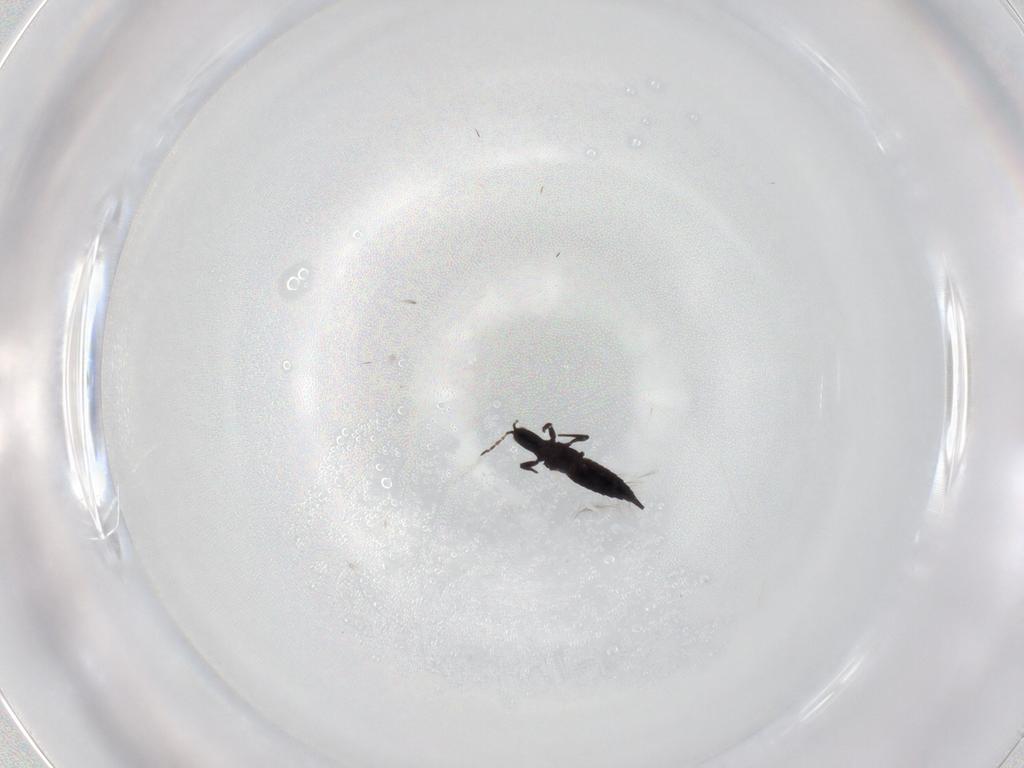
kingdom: Animalia
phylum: Arthropoda
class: Insecta
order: Thysanoptera
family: Phlaeothripidae
